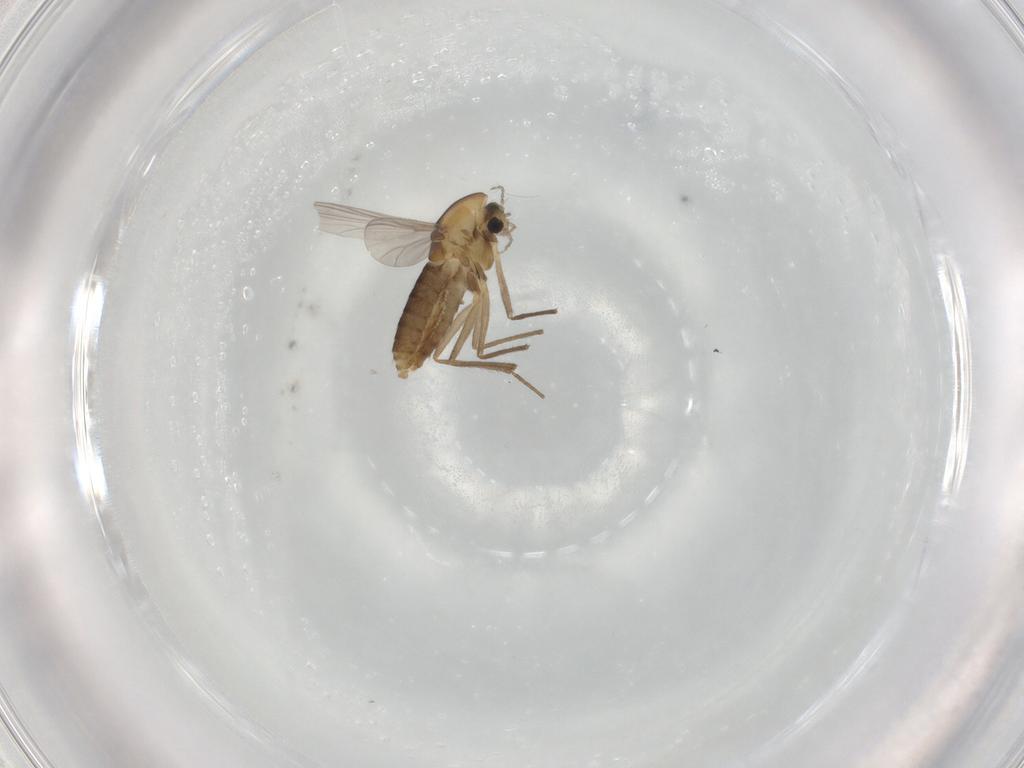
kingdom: Animalia
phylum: Arthropoda
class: Insecta
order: Diptera
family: Chironomidae
